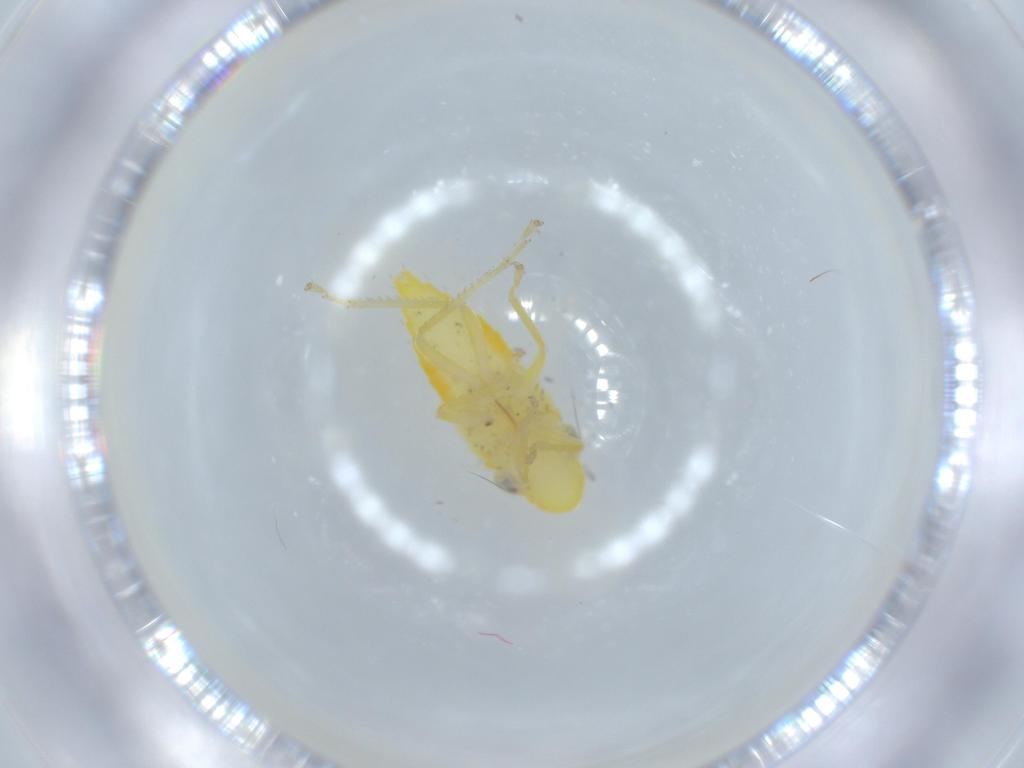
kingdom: Animalia
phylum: Arthropoda
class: Insecta
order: Hemiptera
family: Cicadellidae
